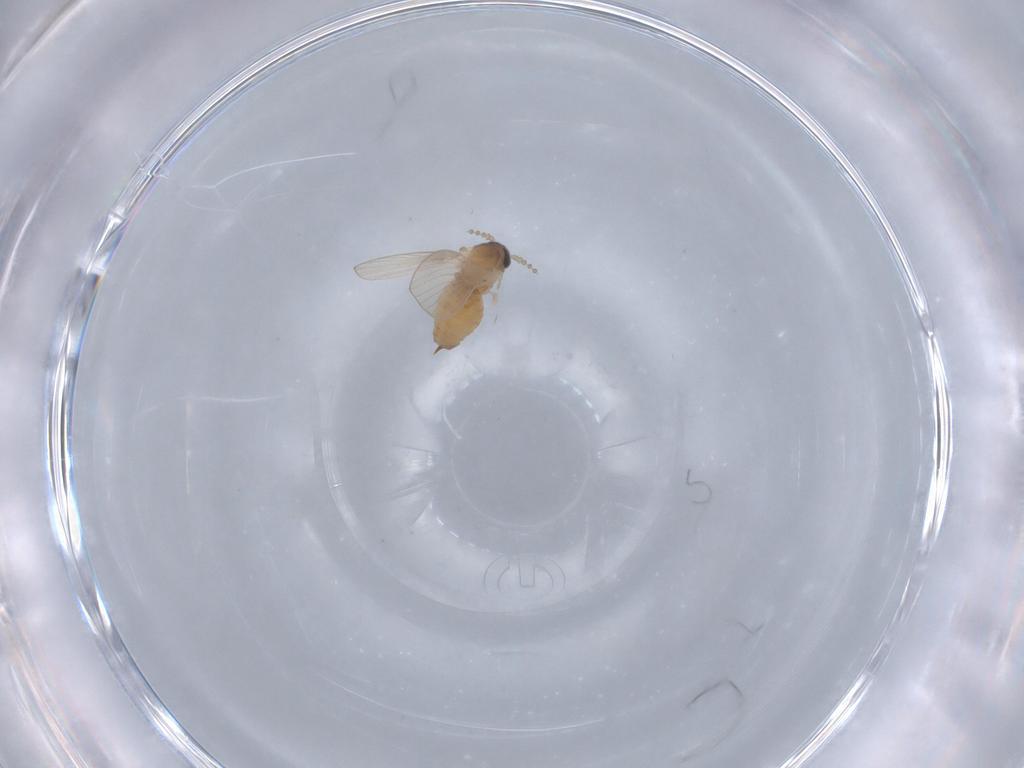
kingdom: Animalia
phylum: Arthropoda
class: Insecta
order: Diptera
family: Psychodidae
